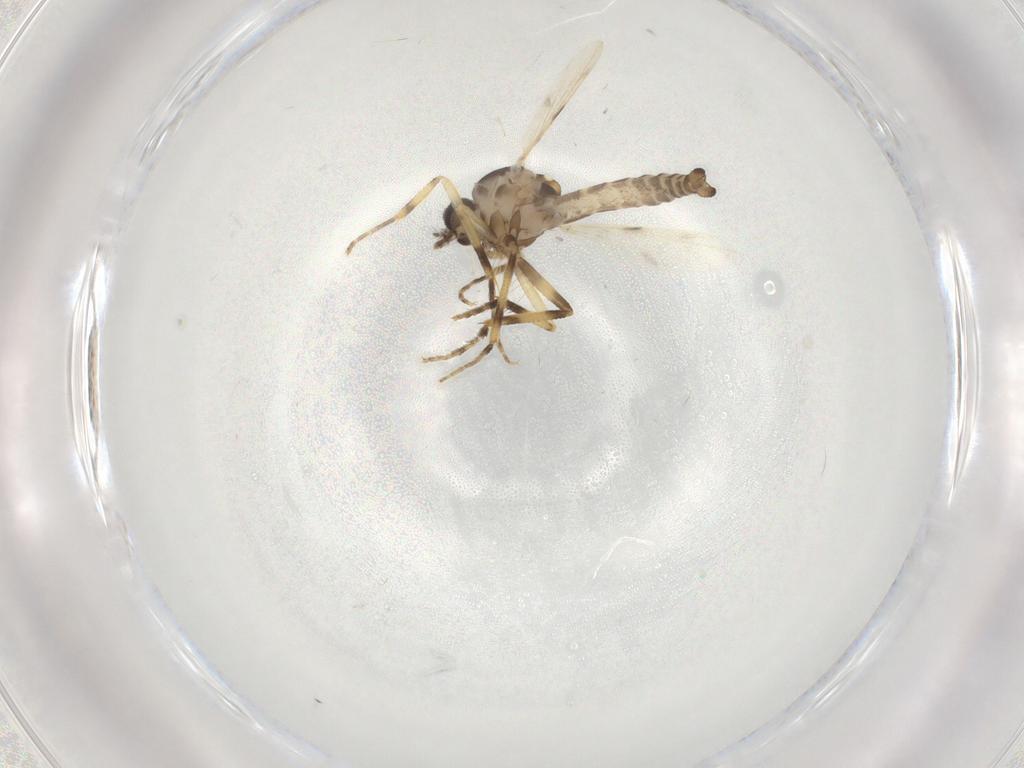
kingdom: Animalia
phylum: Arthropoda
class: Insecta
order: Diptera
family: Ceratopogonidae
